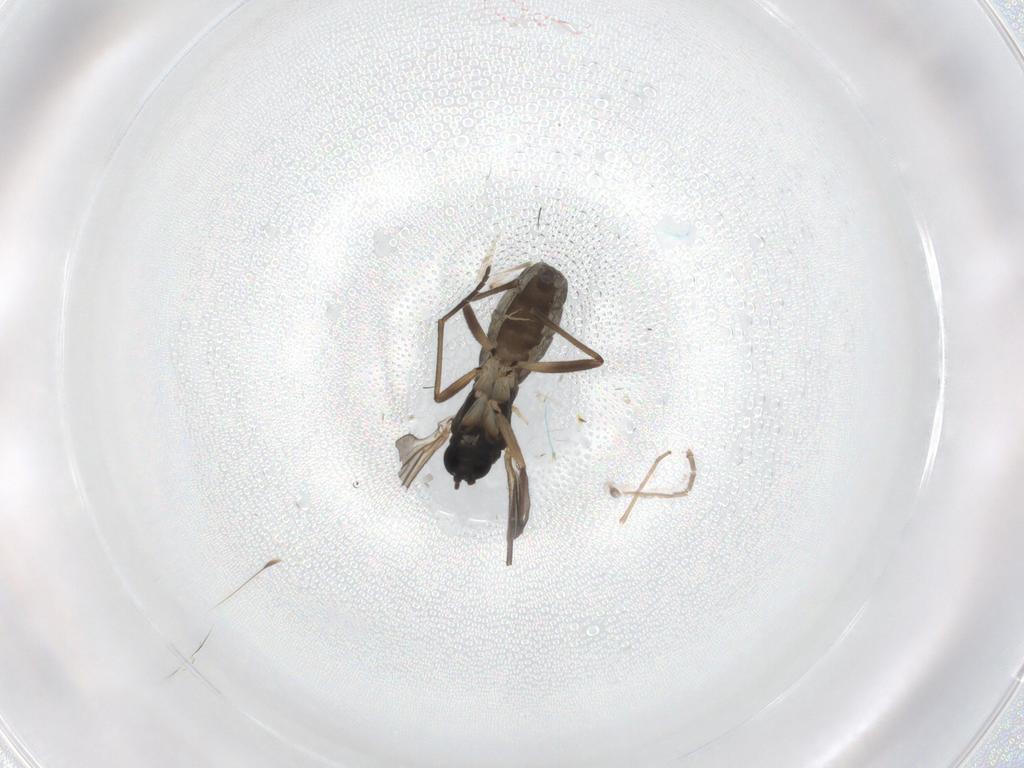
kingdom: Animalia
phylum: Arthropoda
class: Insecta
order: Diptera
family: Sciaridae
